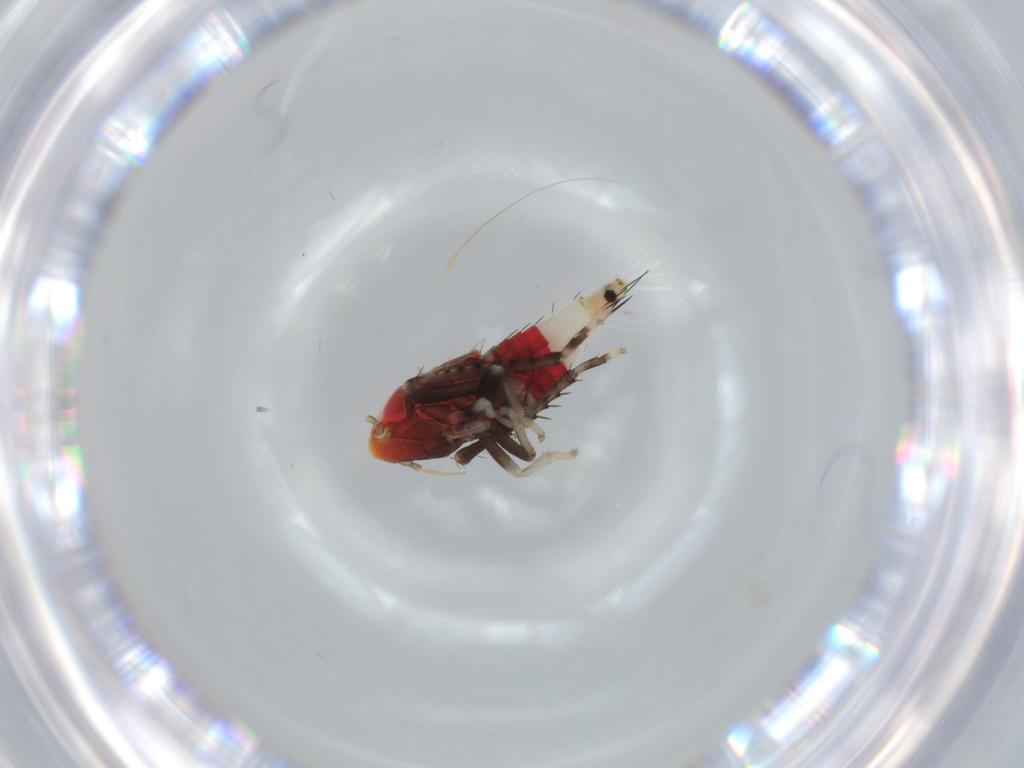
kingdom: Animalia
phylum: Arthropoda
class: Insecta
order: Hemiptera
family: Cicadellidae
